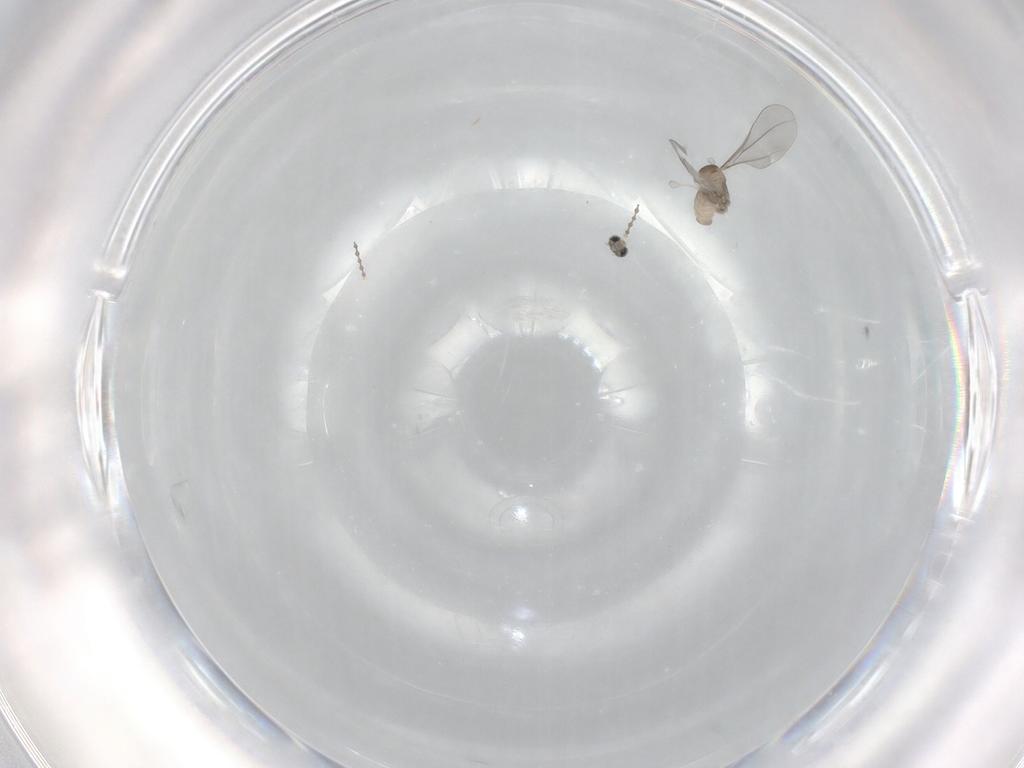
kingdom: Animalia
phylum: Arthropoda
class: Insecta
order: Diptera
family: Cecidomyiidae
